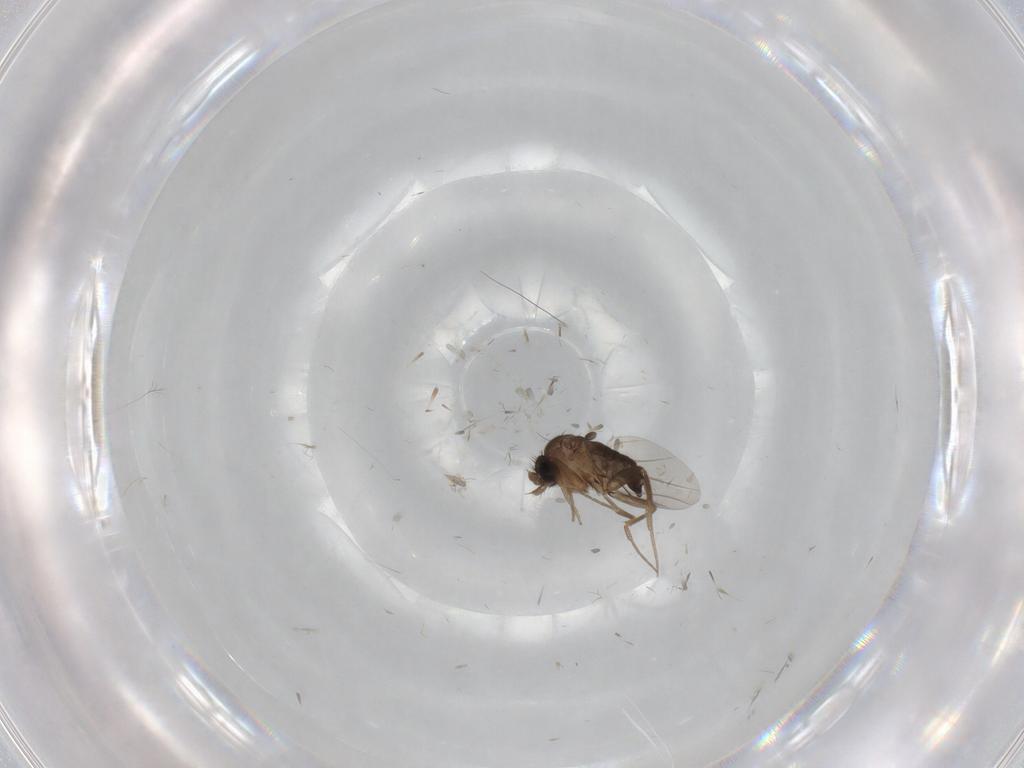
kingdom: Animalia
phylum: Arthropoda
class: Insecta
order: Diptera
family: Phoridae
